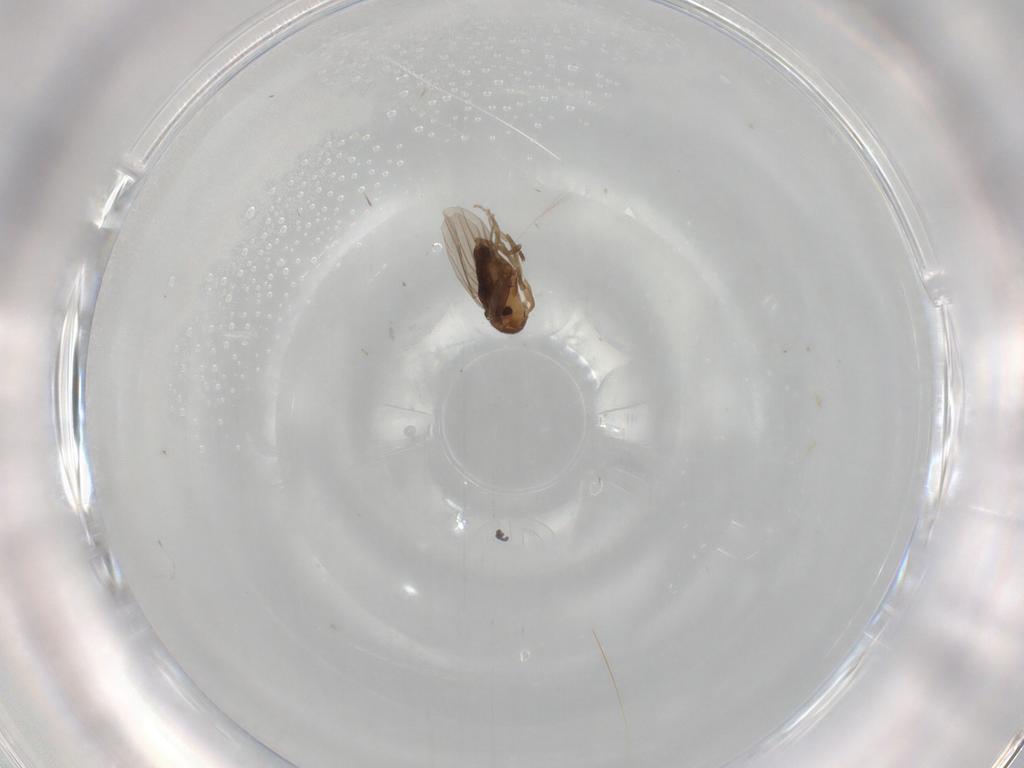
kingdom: Animalia
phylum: Arthropoda
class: Insecta
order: Diptera
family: Phoridae
